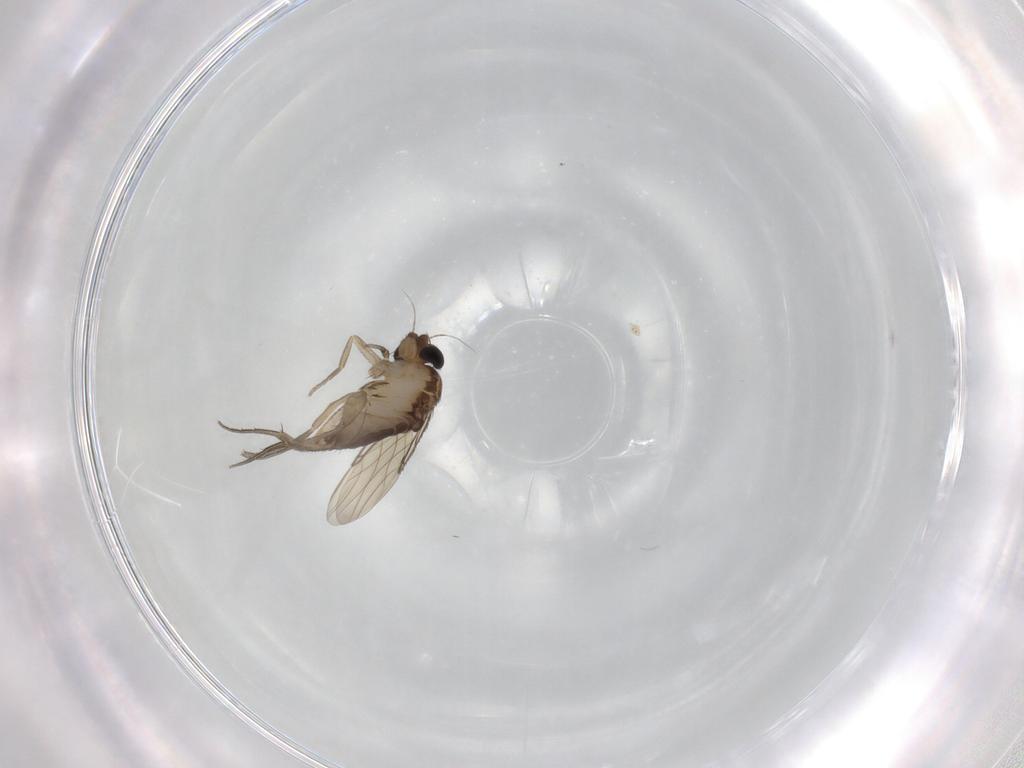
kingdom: Animalia
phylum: Arthropoda
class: Insecta
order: Diptera
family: Phoridae
